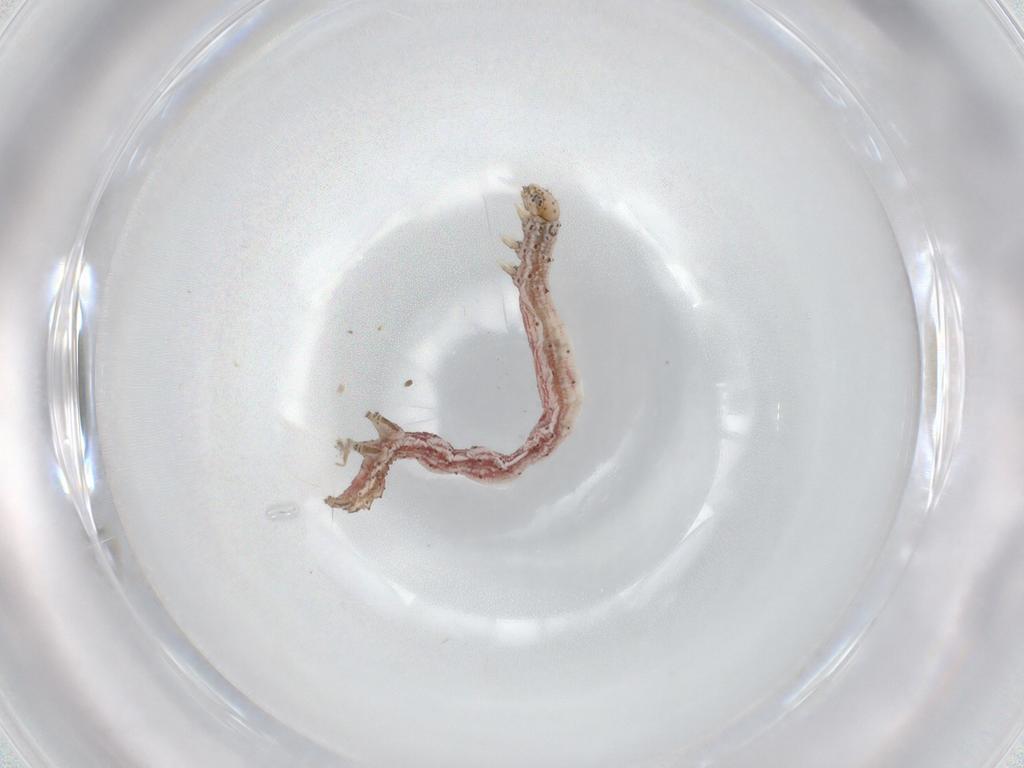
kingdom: Animalia
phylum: Arthropoda
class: Insecta
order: Lepidoptera
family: Erebidae
